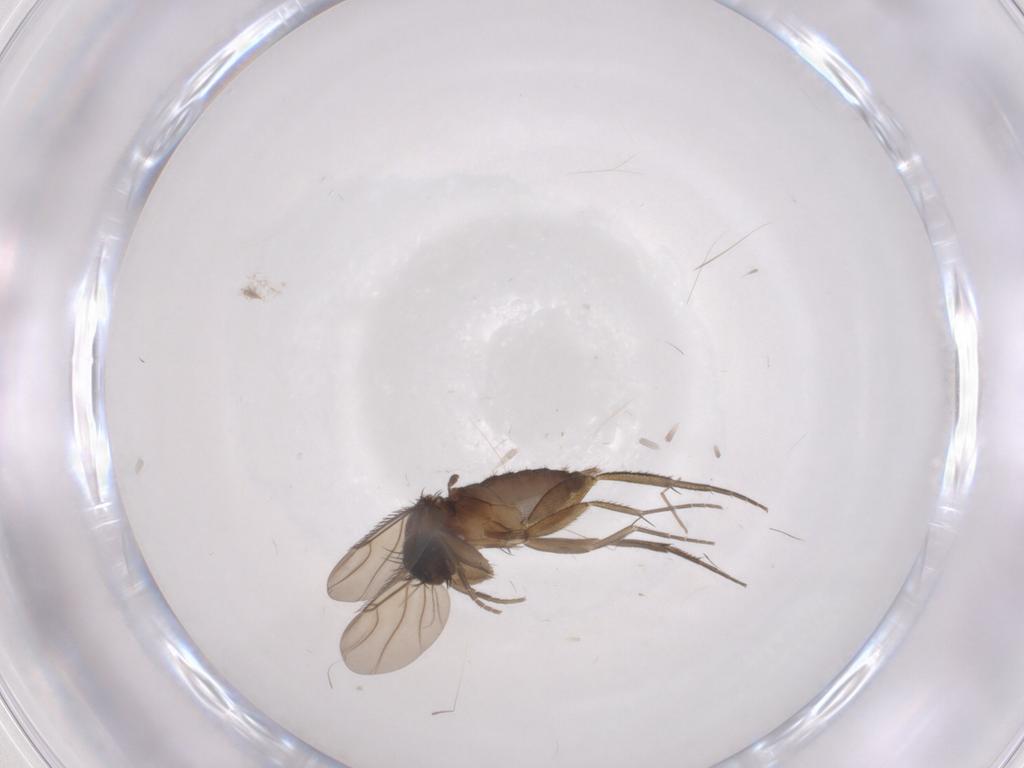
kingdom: Animalia
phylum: Arthropoda
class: Insecta
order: Diptera
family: Phoridae
